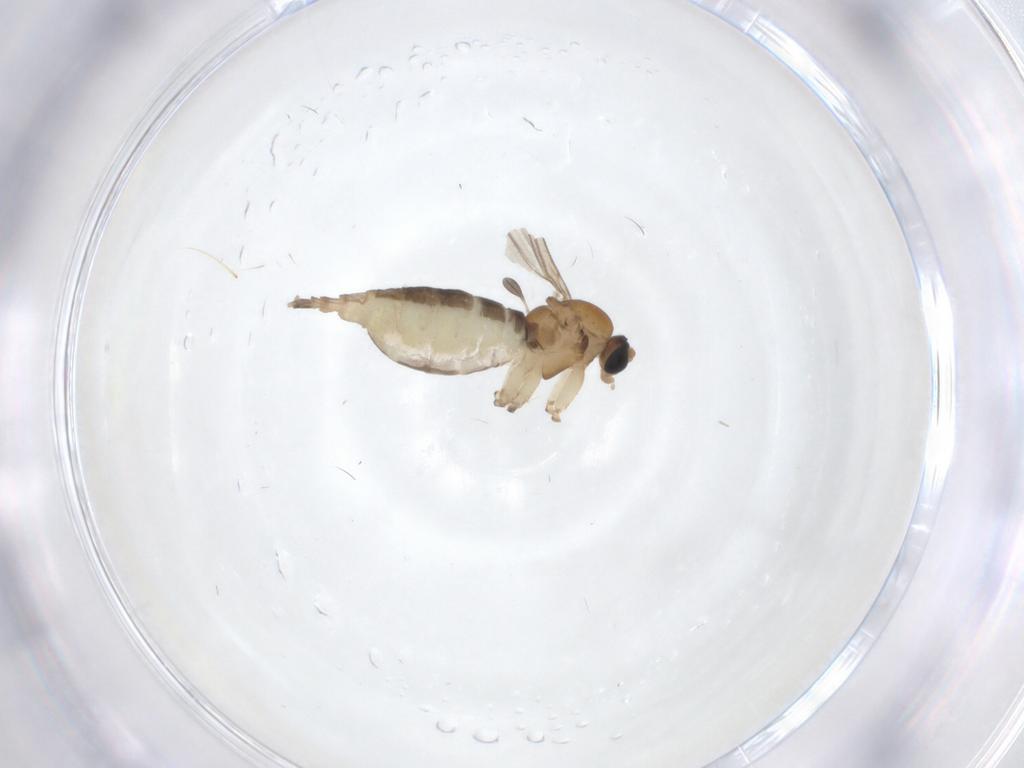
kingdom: Animalia
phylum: Arthropoda
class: Insecta
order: Diptera
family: Sciaridae
